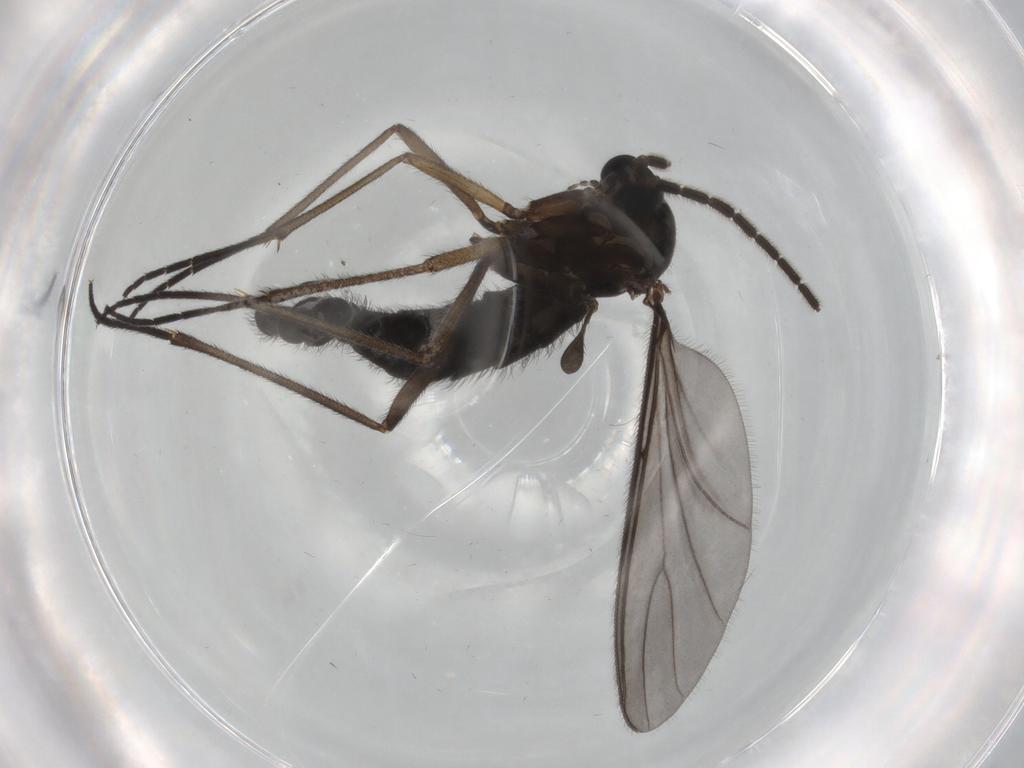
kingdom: Animalia
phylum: Arthropoda
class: Insecta
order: Diptera
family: Sciaridae
